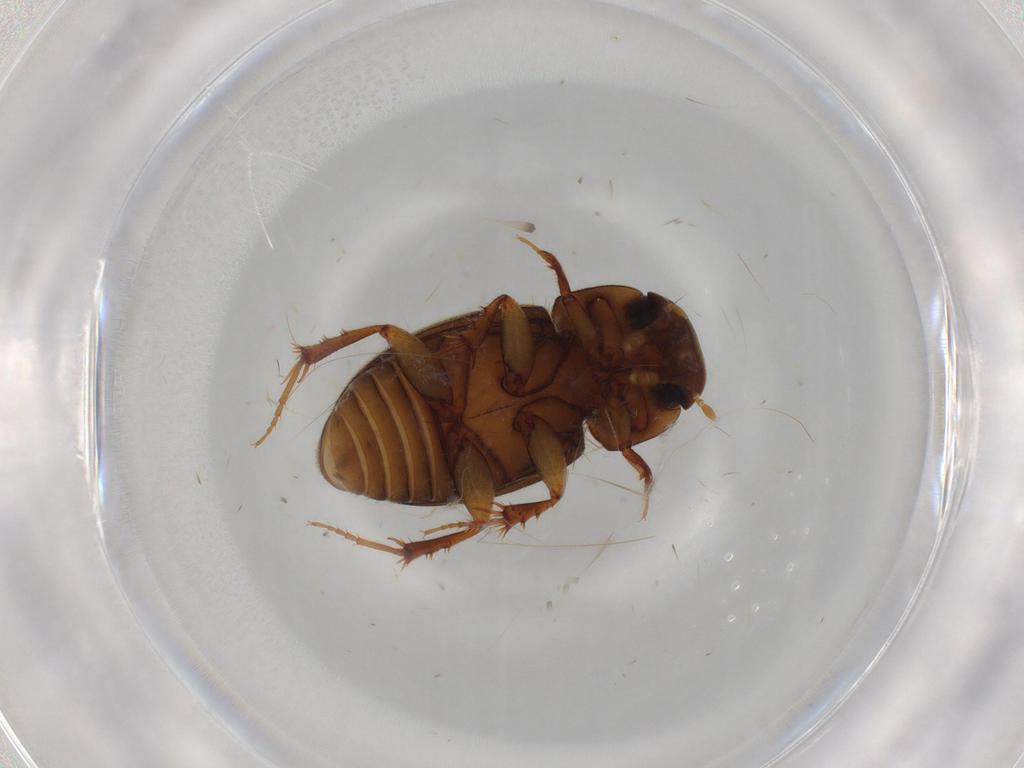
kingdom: Animalia
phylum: Arthropoda
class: Insecta
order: Coleoptera
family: Scarabaeidae
